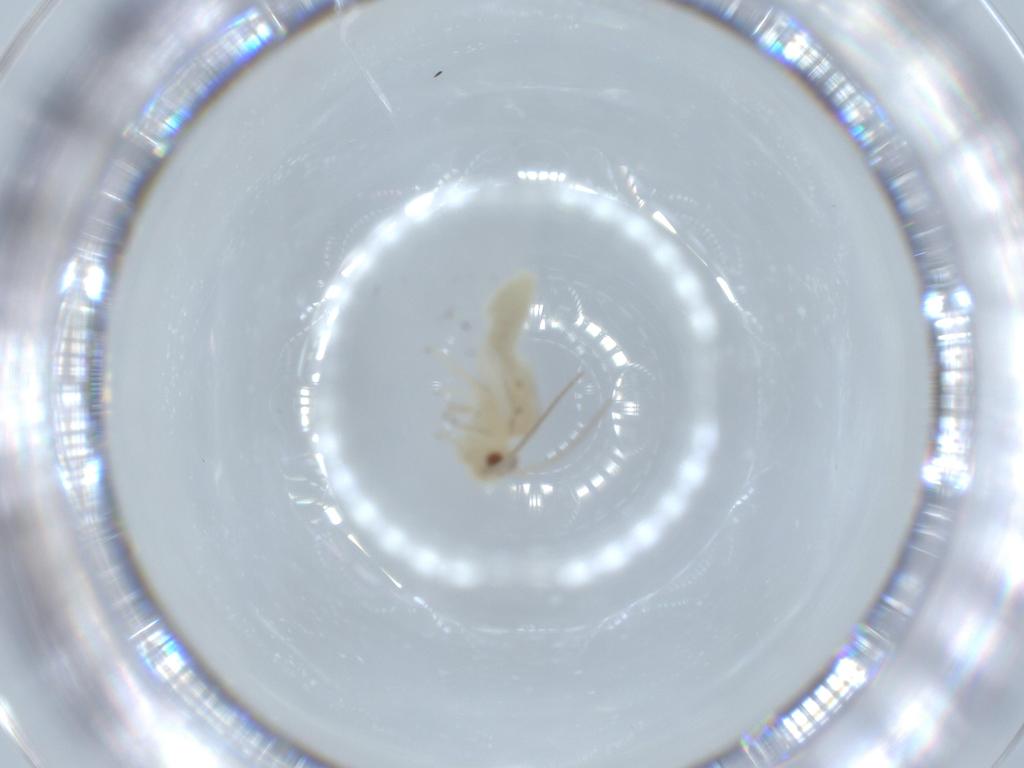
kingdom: Animalia
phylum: Arthropoda
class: Insecta
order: Psocodea
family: Caeciliusidae
